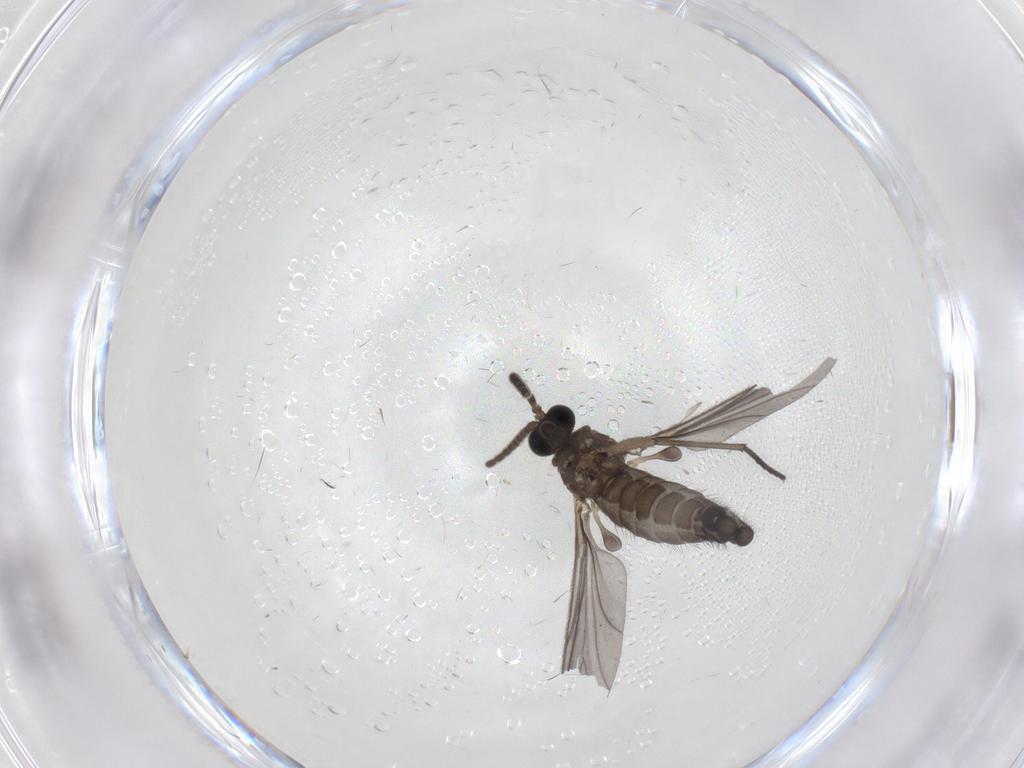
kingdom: Animalia
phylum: Arthropoda
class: Insecta
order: Diptera
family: Sciaridae
